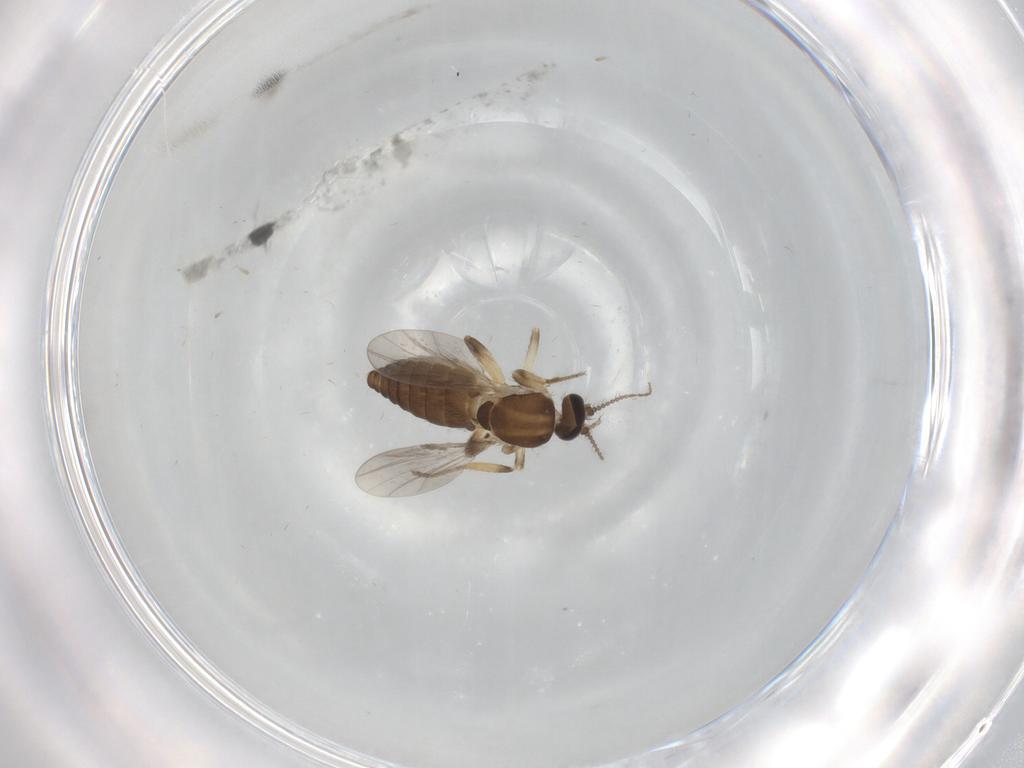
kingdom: Animalia
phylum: Arthropoda
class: Insecta
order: Diptera
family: Ceratopogonidae
